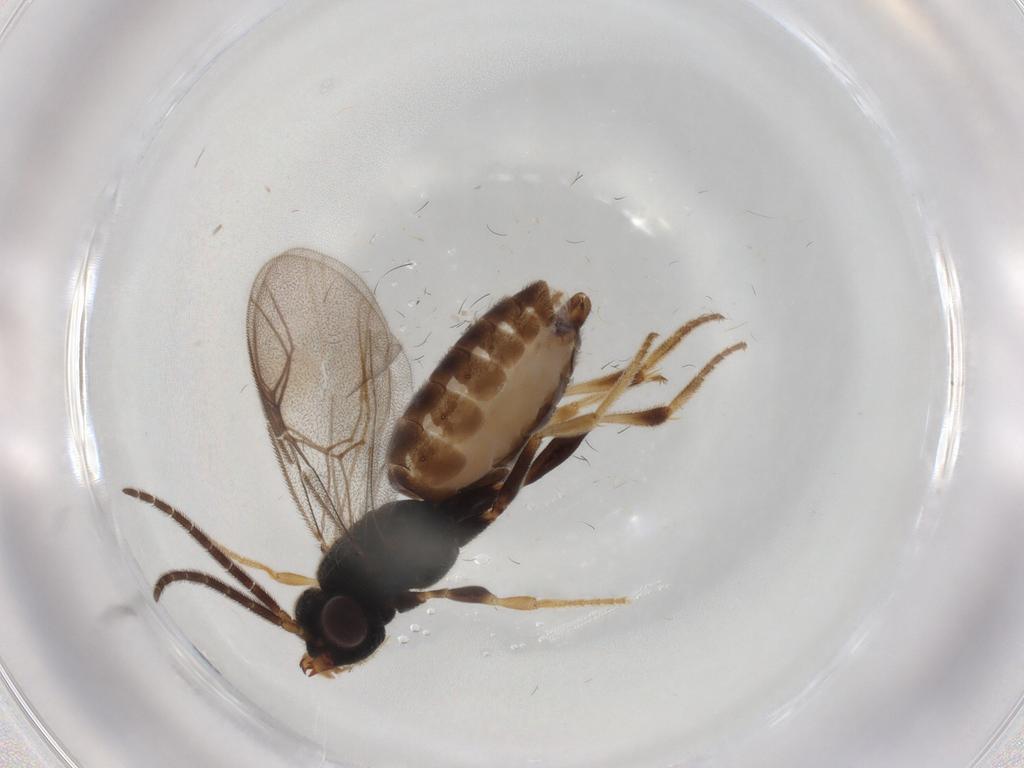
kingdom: Animalia
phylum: Arthropoda
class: Insecta
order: Hymenoptera
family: Dryinidae
